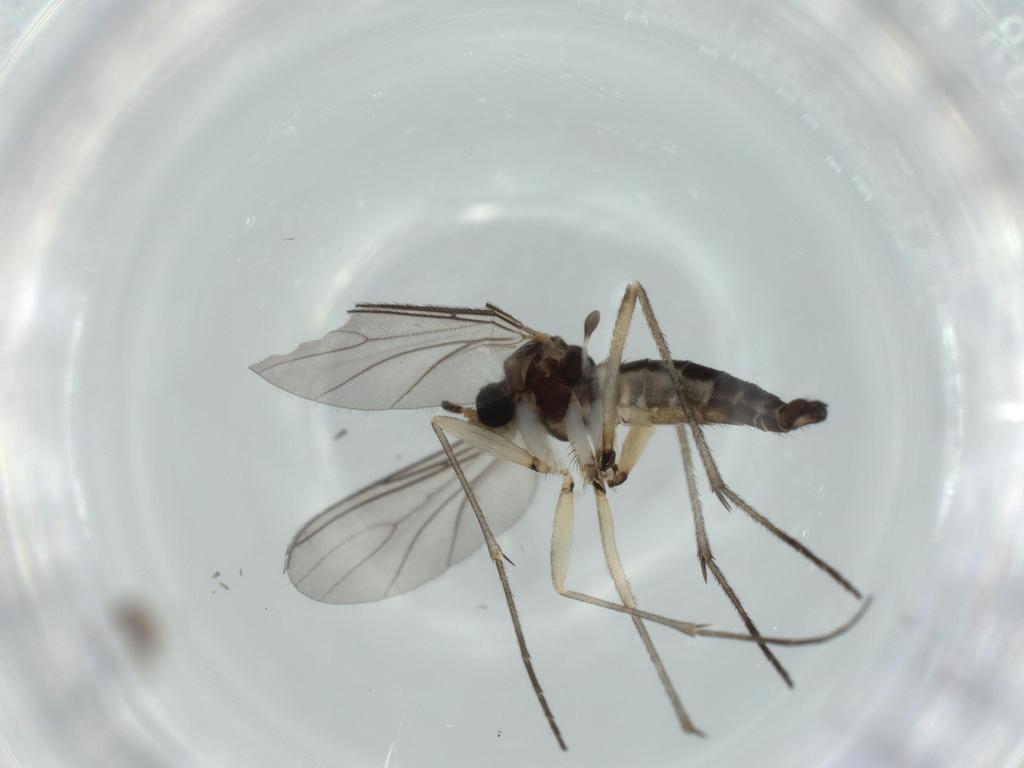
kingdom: Animalia
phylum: Arthropoda
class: Insecta
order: Diptera
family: Sciaridae
